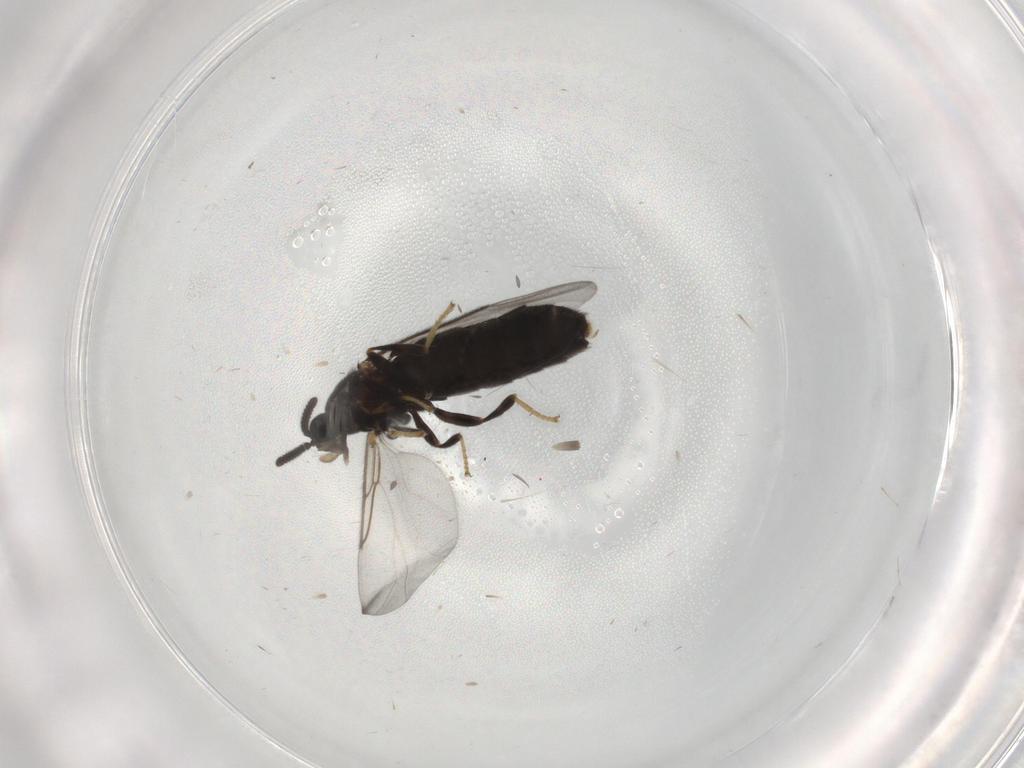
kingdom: Animalia
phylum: Arthropoda
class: Insecta
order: Diptera
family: Scatopsidae
